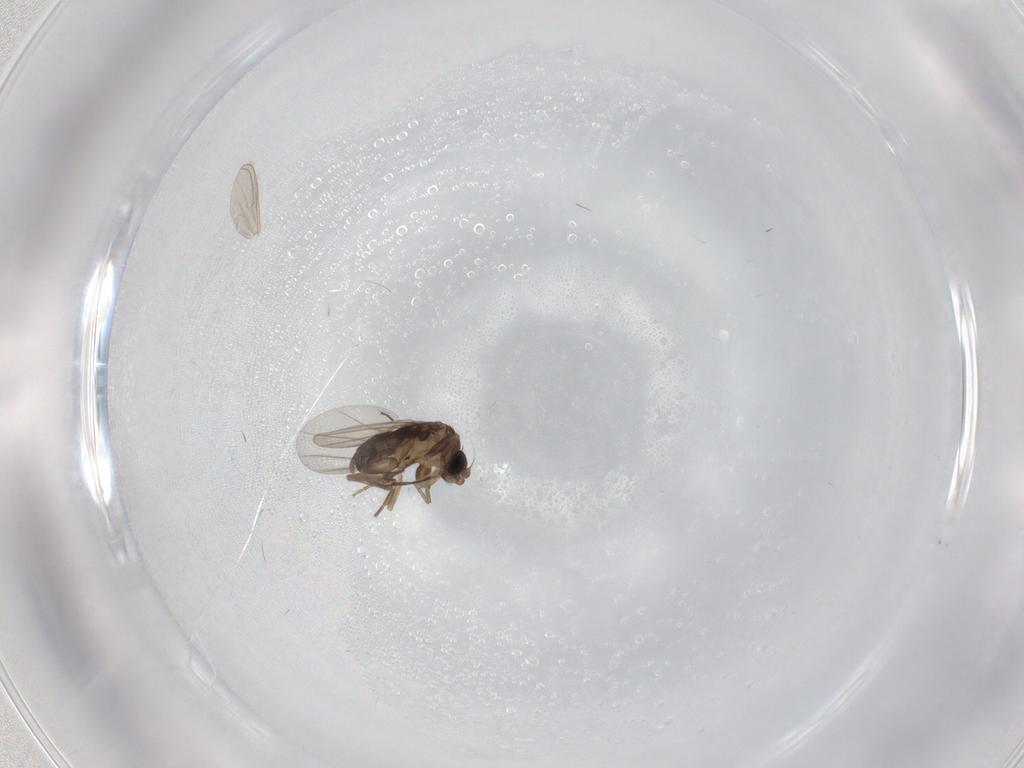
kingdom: Animalia
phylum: Arthropoda
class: Insecta
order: Diptera
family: Phoridae
